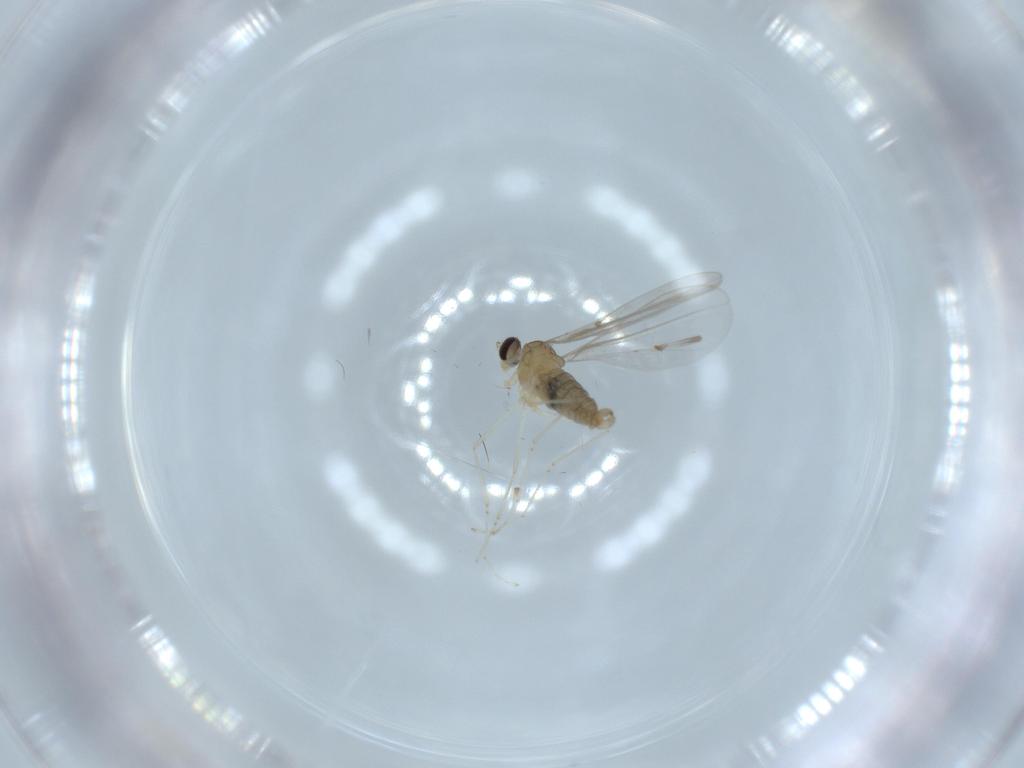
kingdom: Animalia
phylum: Arthropoda
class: Insecta
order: Diptera
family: Cecidomyiidae
